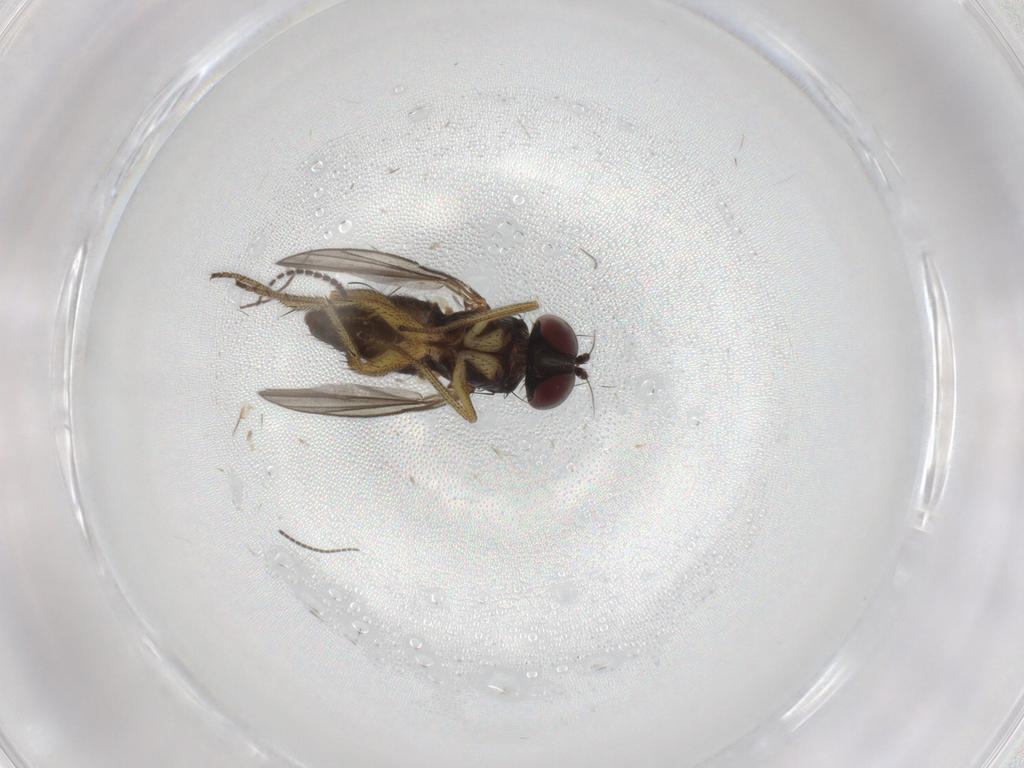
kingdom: Animalia
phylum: Arthropoda
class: Insecta
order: Diptera
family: Dolichopodidae
